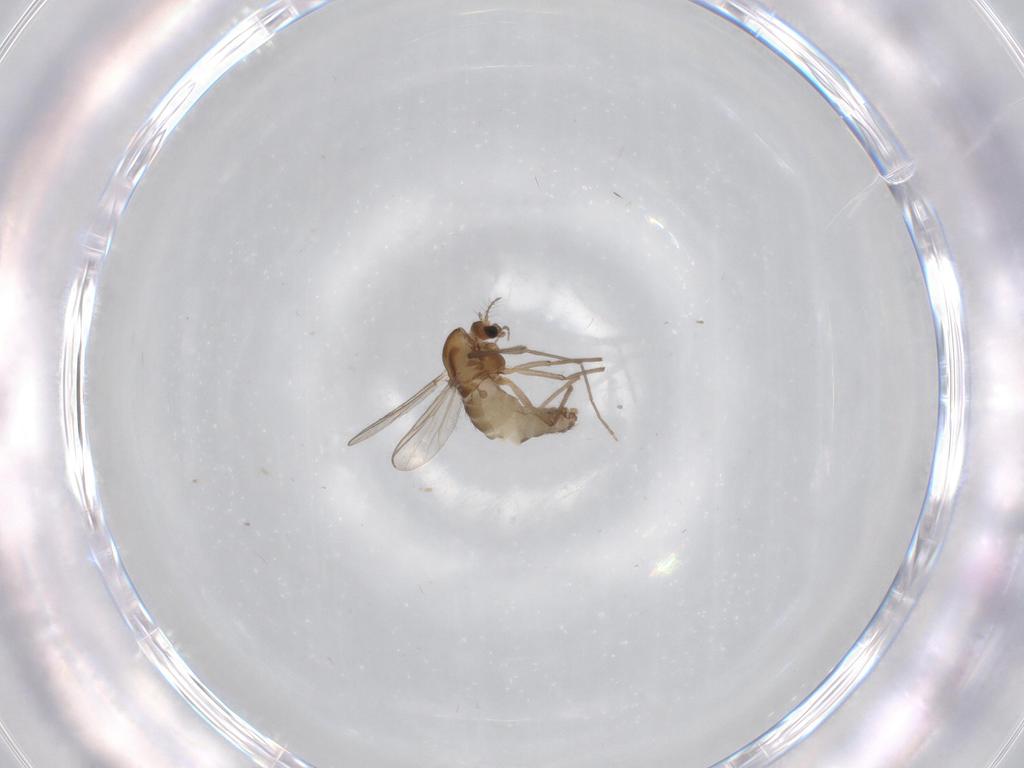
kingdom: Animalia
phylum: Arthropoda
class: Insecta
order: Diptera
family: Chironomidae
